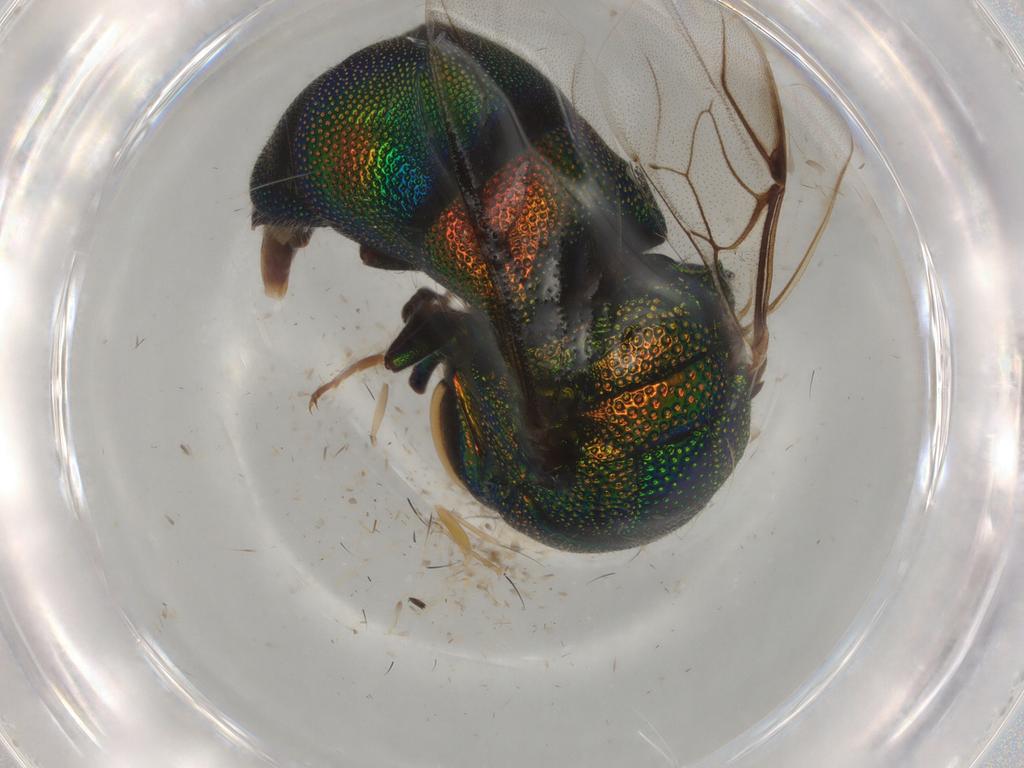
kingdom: Animalia
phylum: Arthropoda
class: Insecta
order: Hymenoptera
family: Chrysididae
